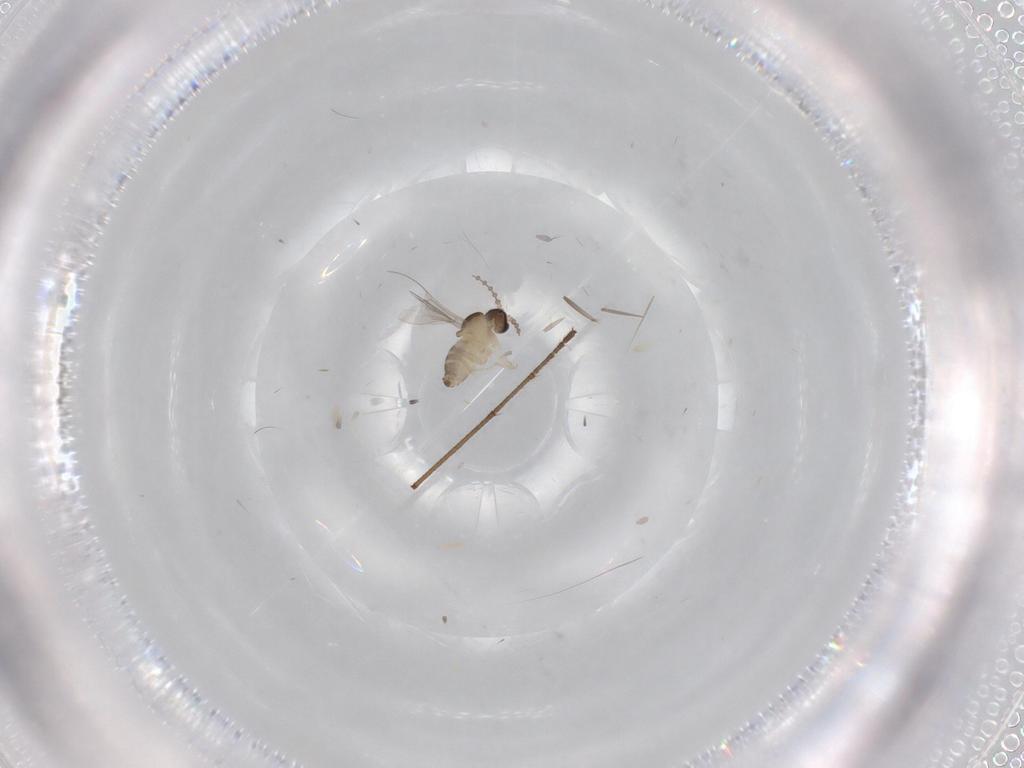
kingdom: Animalia
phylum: Arthropoda
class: Insecta
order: Diptera
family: Cecidomyiidae
